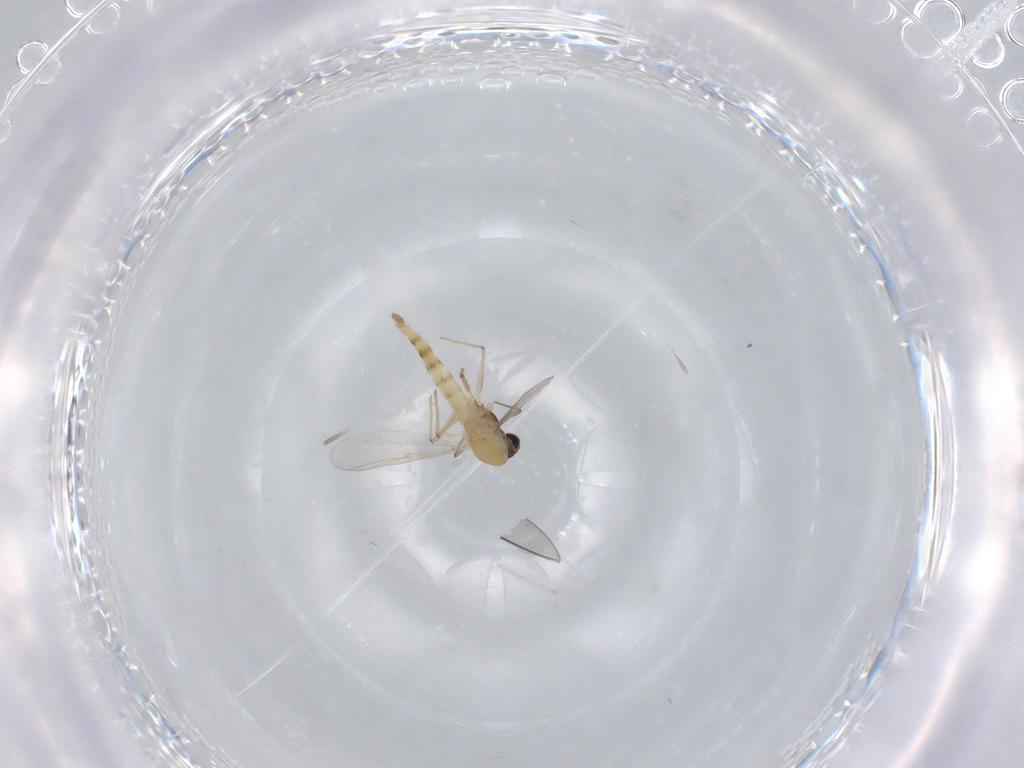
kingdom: Animalia
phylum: Arthropoda
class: Insecta
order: Diptera
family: Chironomidae
